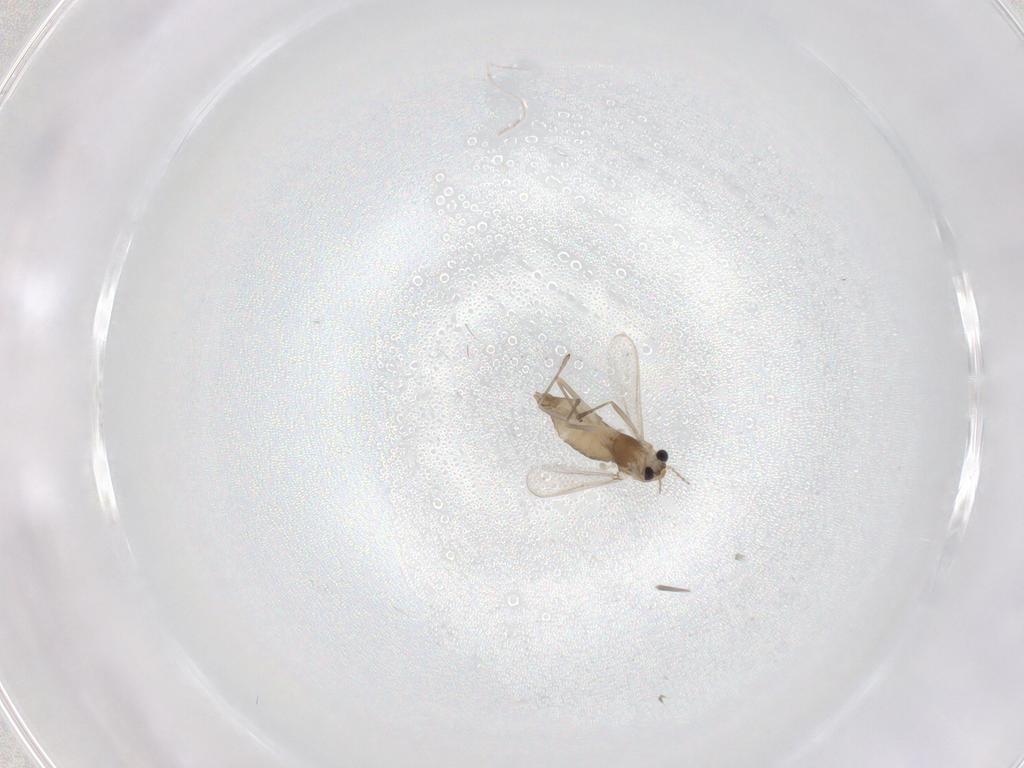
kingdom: Animalia
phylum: Arthropoda
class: Insecta
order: Diptera
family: Chironomidae
